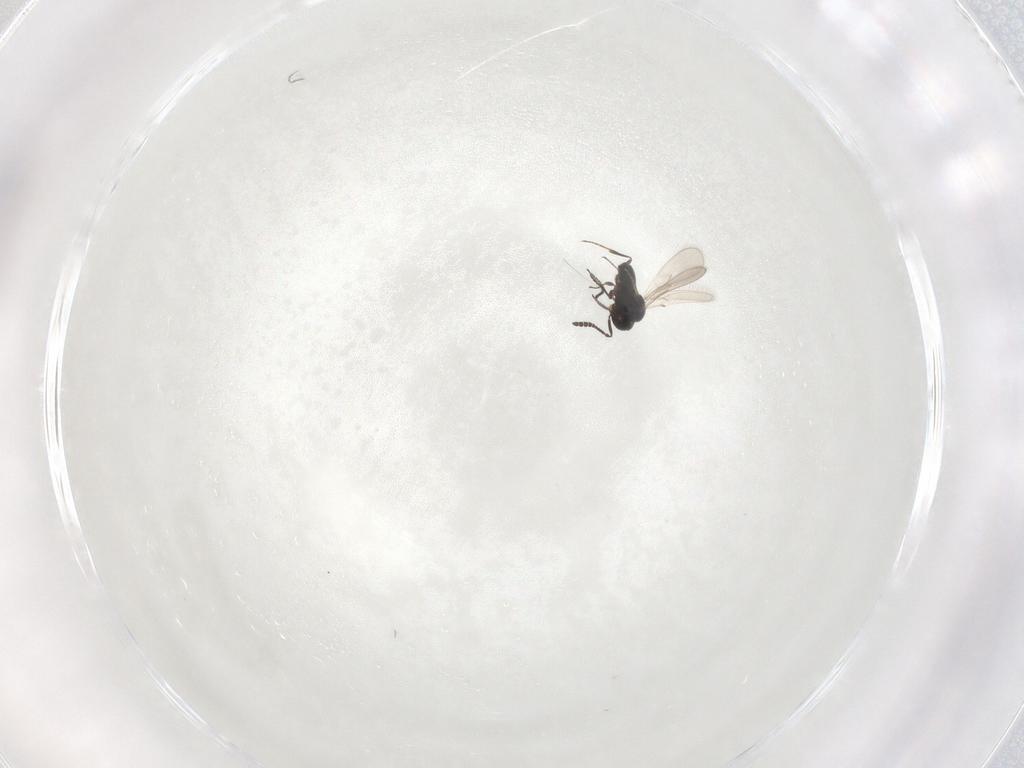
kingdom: Animalia
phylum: Arthropoda
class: Insecta
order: Hymenoptera
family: Scelionidae
